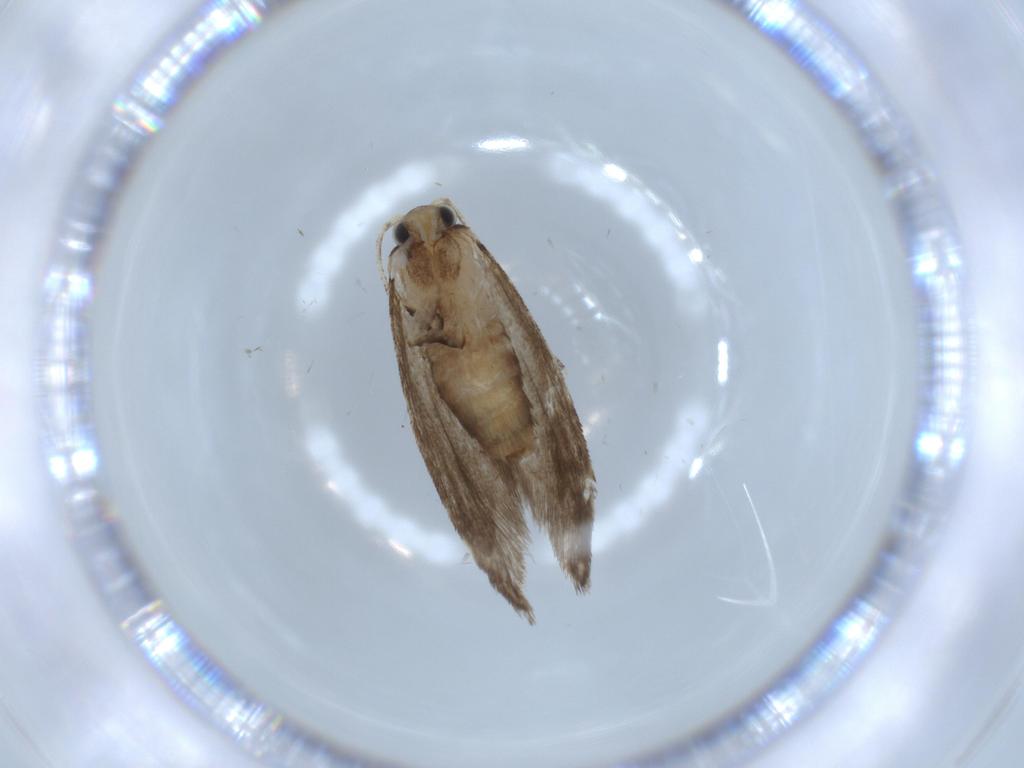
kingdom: Animalia
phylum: Arthropoda
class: Insecta
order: Lepidoptera
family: Tineidae
